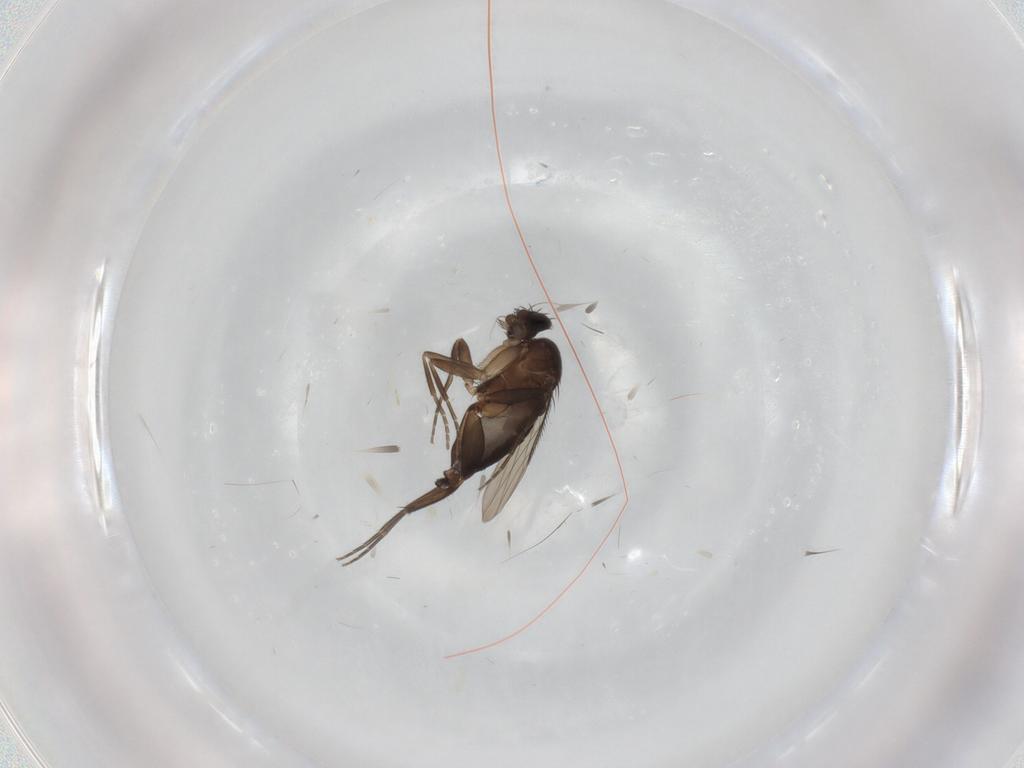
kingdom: Animalia
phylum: Arthropoda
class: Insecta
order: Diptera
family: Phoridae
